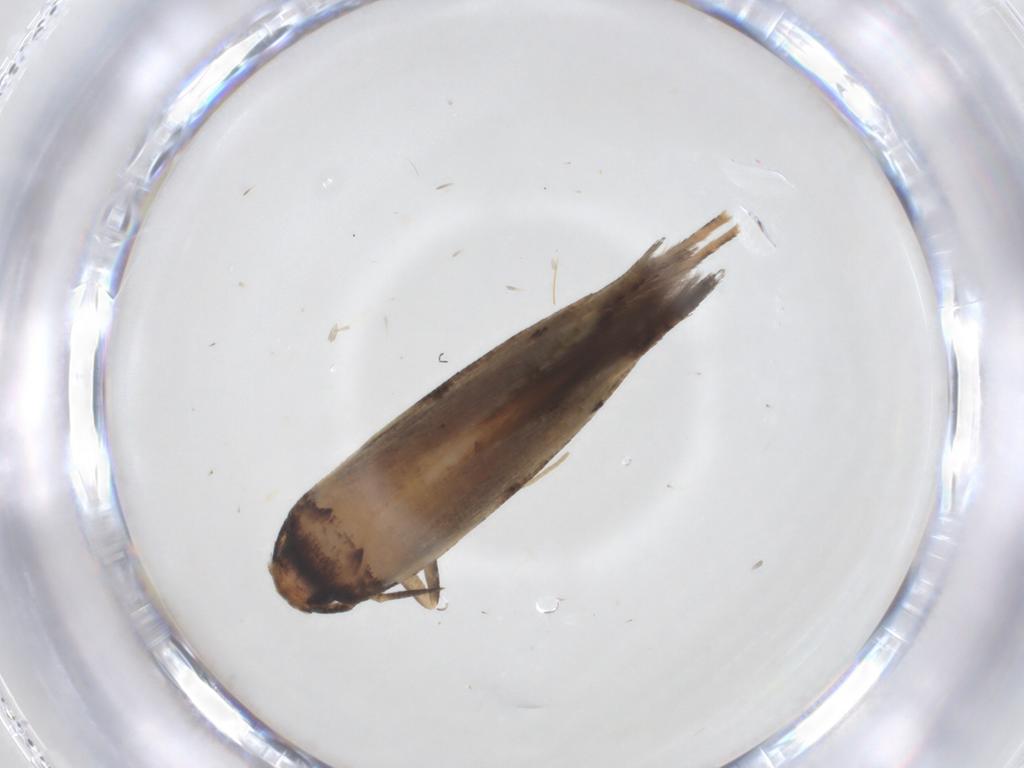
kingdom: Animalia
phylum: Arthropoda
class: Insecta
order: Lepidoptera
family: Cosmopterigidae
